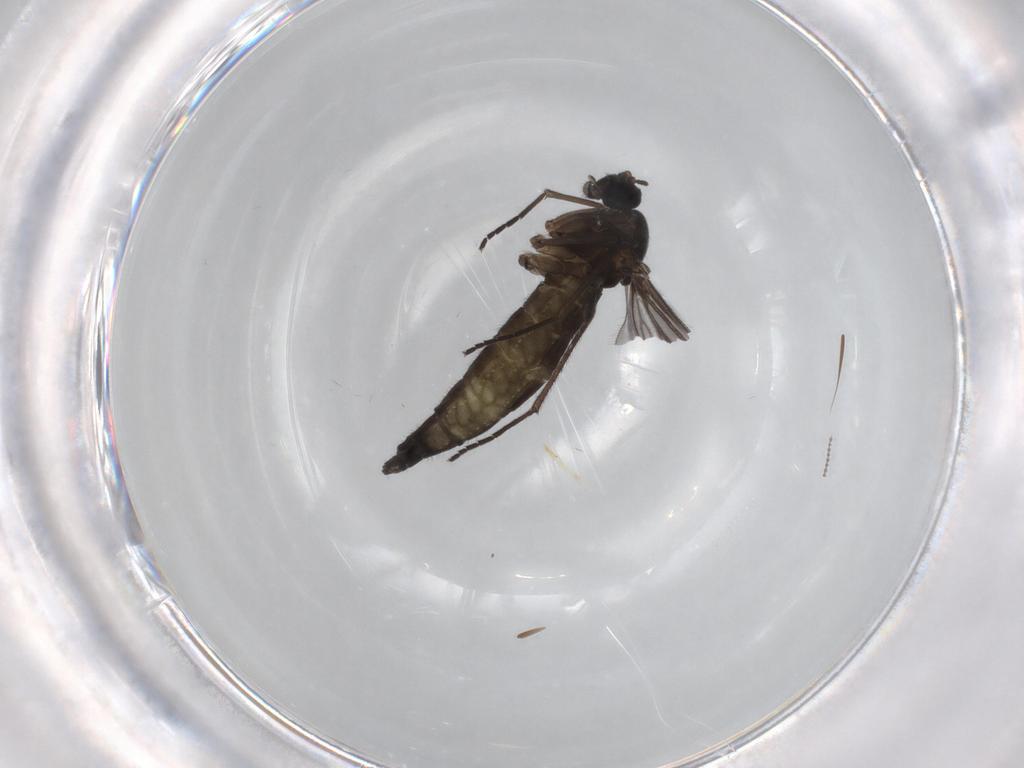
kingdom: Animalia
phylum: Arthropoda
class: Insecta
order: Diptera
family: Sciaridae
